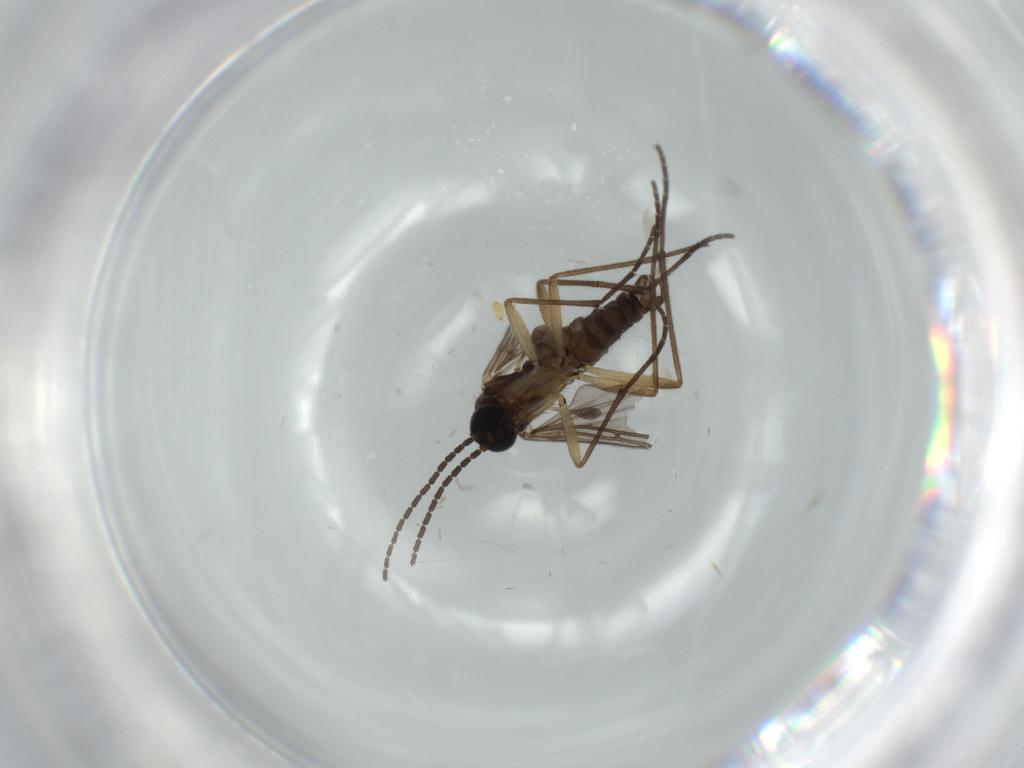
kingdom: Animalia
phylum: Arthropoda
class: Insecta
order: Diptera
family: Sciaridae
